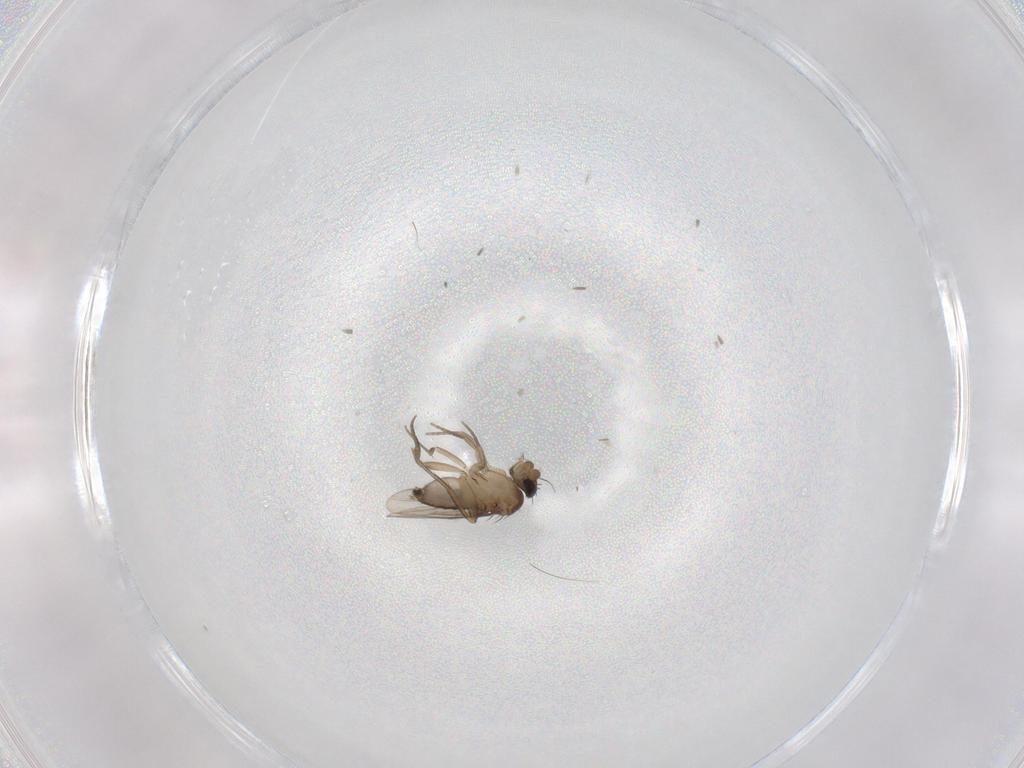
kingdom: Animalia
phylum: Arthropoda
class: Insecta
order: Diptera
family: Phoridae
